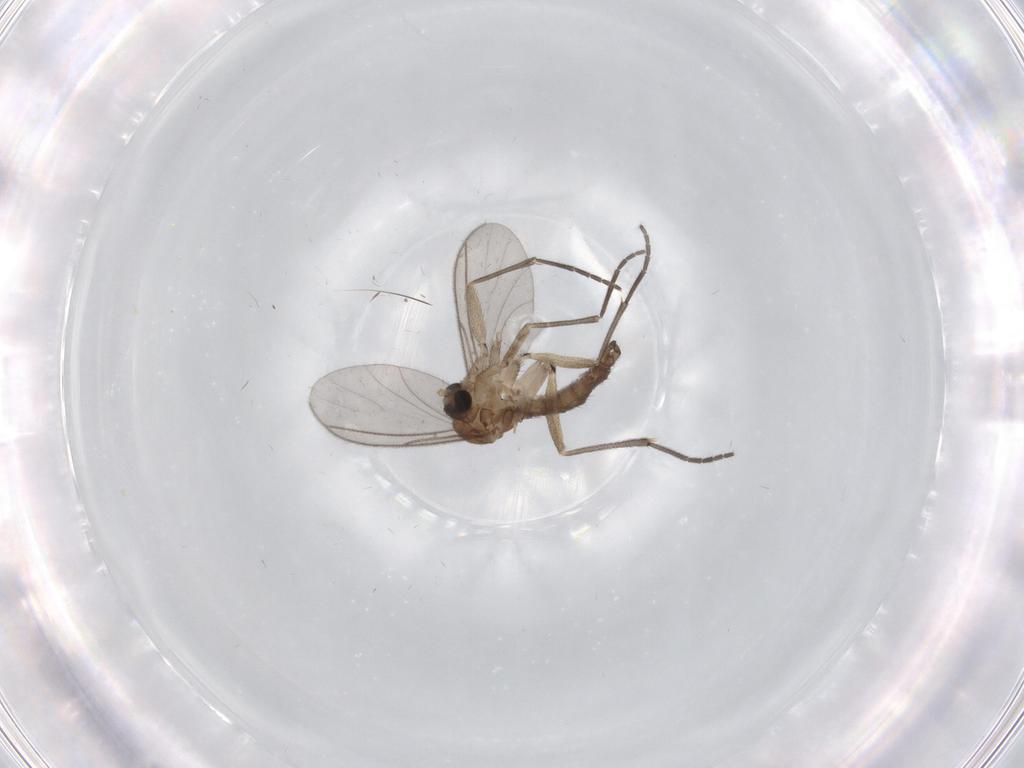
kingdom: Animalia
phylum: Arthropoda
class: Insecta
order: Diptera
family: Sciaridae
